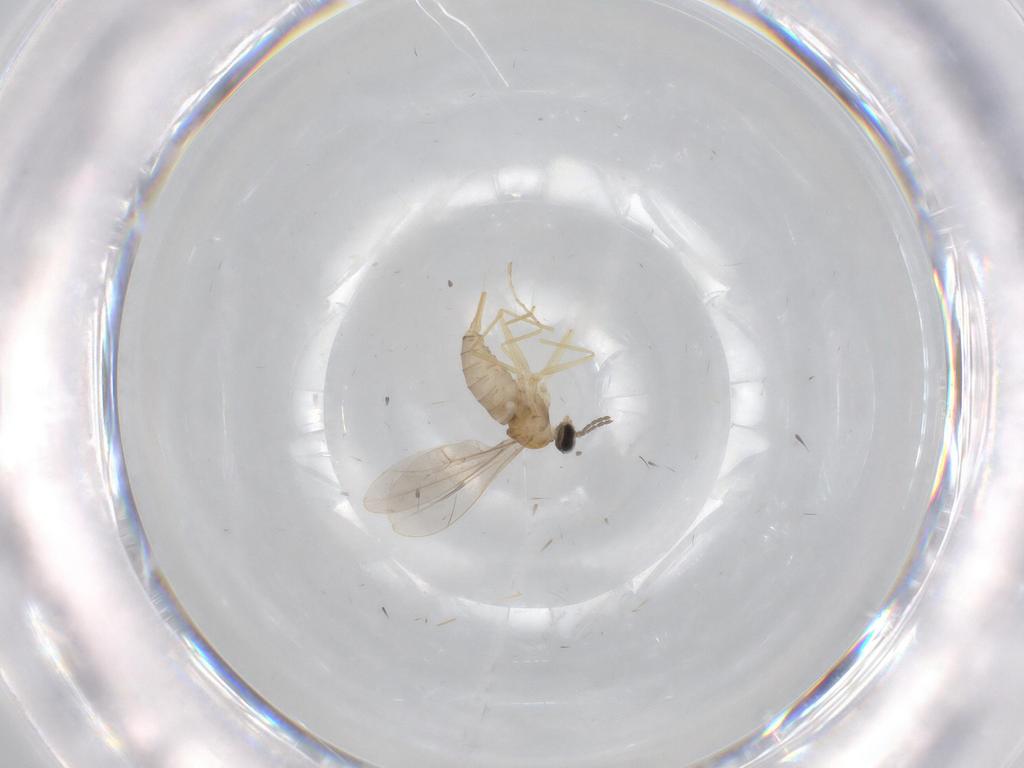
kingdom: Animalia
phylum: Arthropoda
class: Insecta
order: Diptera
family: Cecidomyiidae
